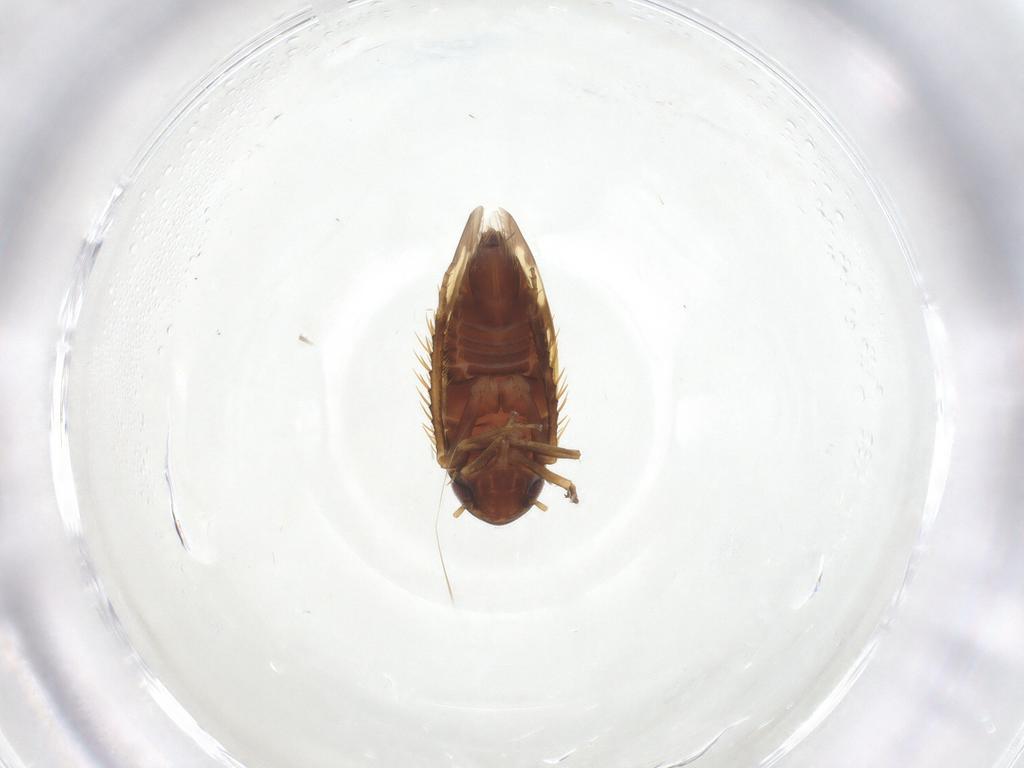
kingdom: Animalia
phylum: Arthropoda
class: Insecta
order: Hemiptera
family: Cicadellidae
